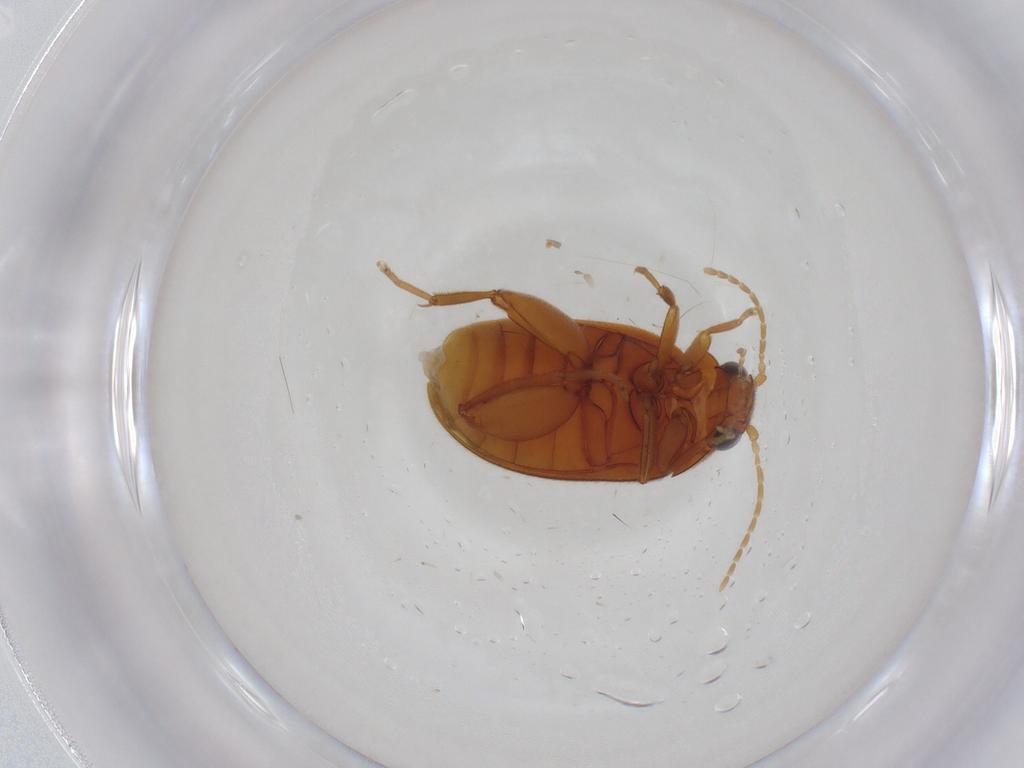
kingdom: Animalia
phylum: Arthropoda
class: Insecta
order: Coleoptera
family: Scirtidae
